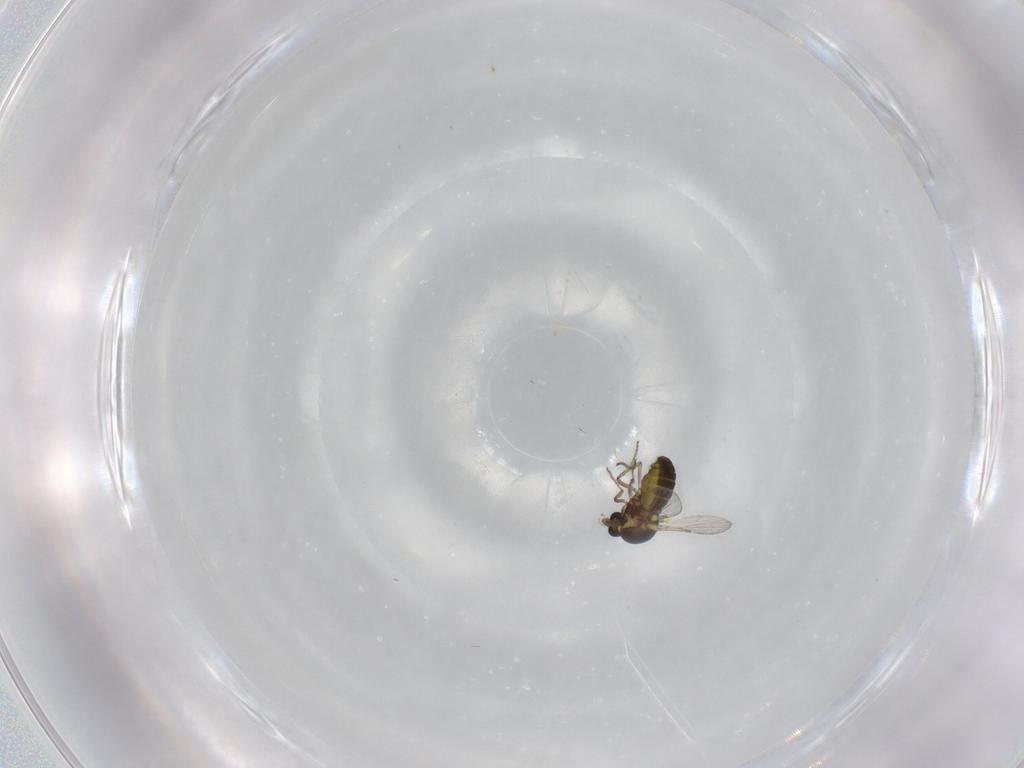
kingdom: Animalia
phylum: Arthropoda
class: Insecta
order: Diptera
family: Ceratopogonidae
